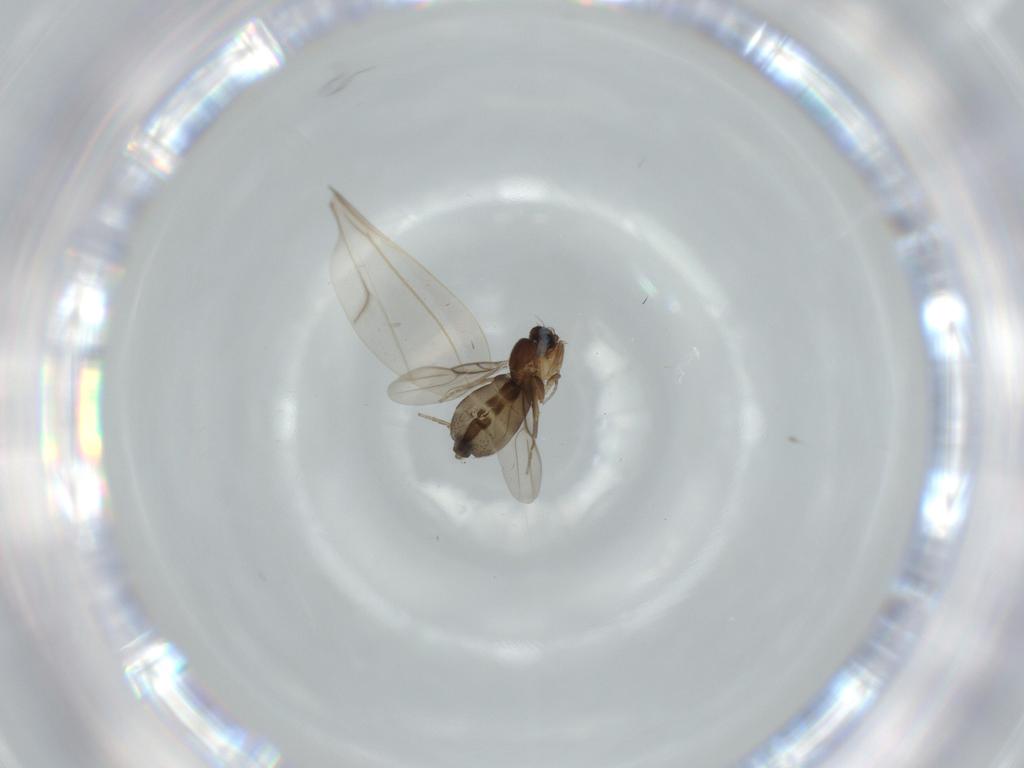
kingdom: Animalia
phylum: Arthropoda
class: Insecta
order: Diptera
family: Phoridae
